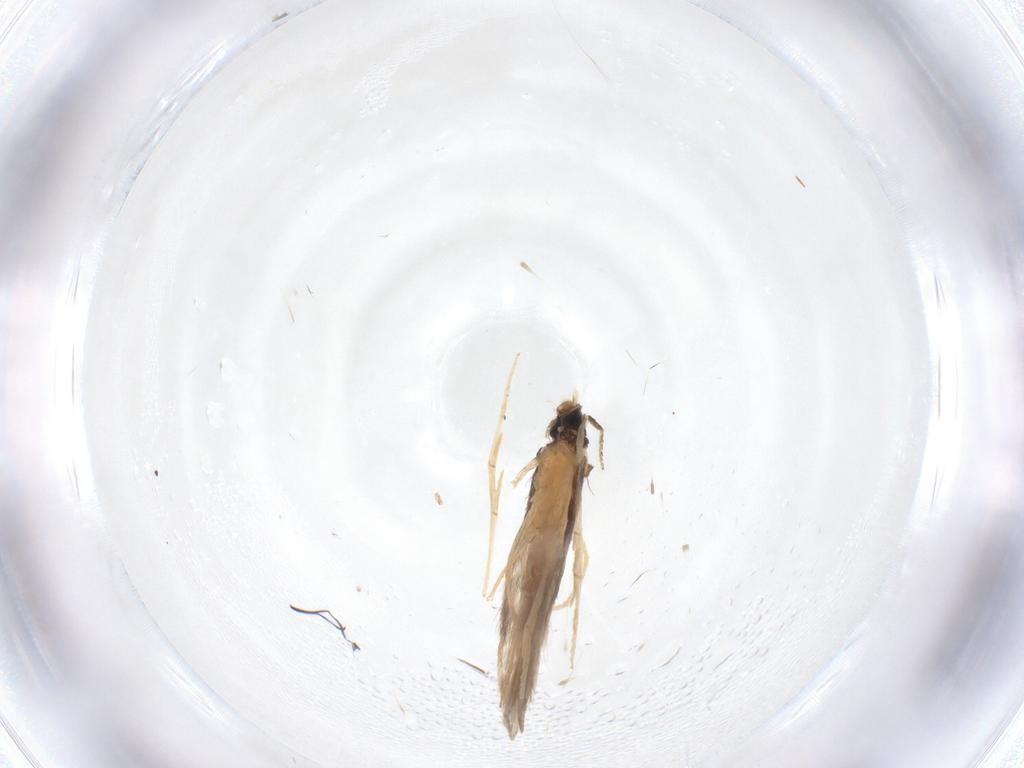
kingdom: Animalia
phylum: Arthropoda
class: Insecta
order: Trichoptera
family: Hydroptilidae
